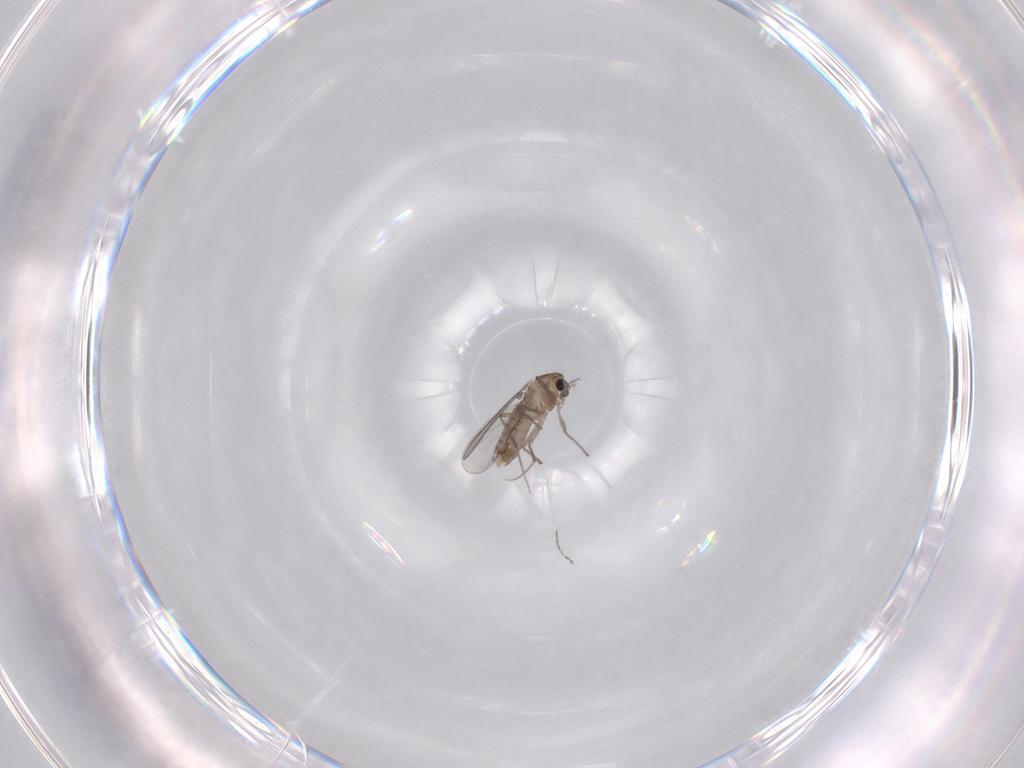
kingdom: Animalia
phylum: Arthropoda
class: Insecta
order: Diptera
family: Chironomidae
